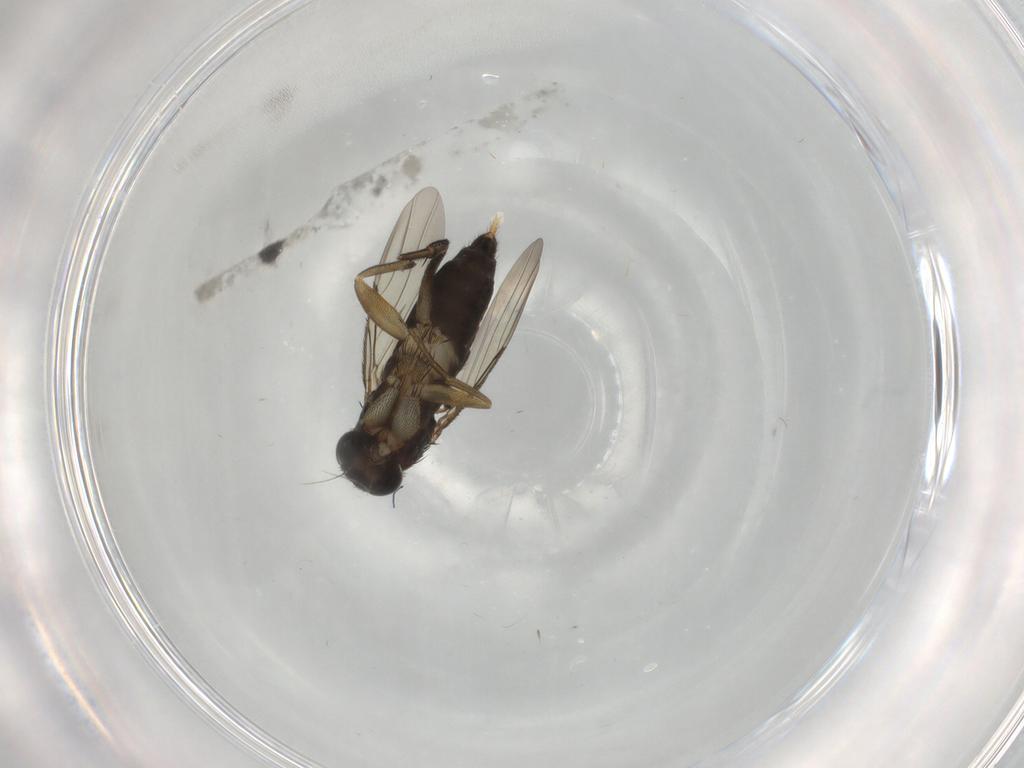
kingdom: Animalia
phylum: Arthropoda
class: Insecta
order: Diptera
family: Phoridae
